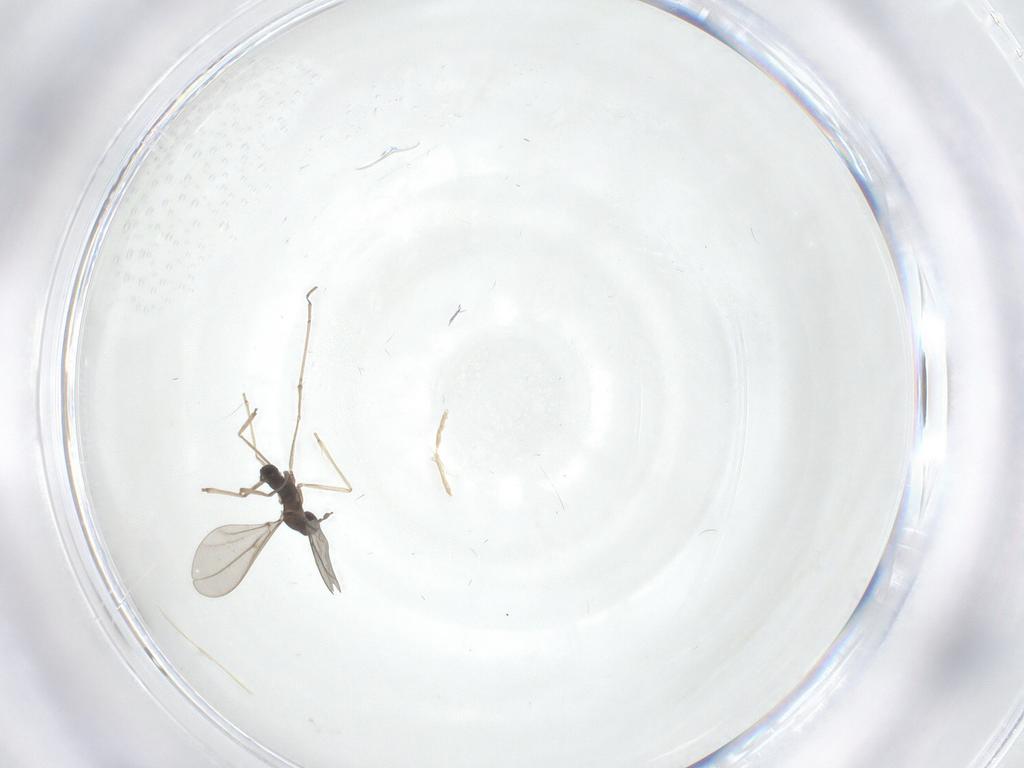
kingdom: Animalia
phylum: Arthropoda
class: Insecta
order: Diptera
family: Cecidomyiidae
